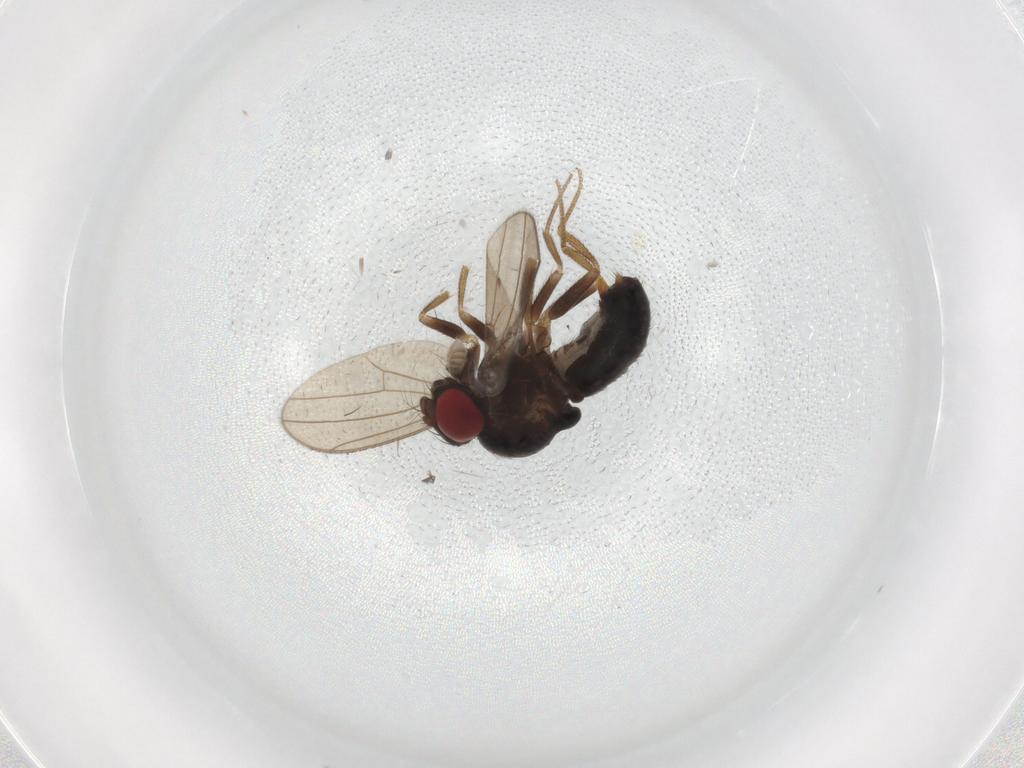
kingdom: Animalia
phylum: Arthropoda
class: Insecta
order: Diptera
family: Drosophilidae
